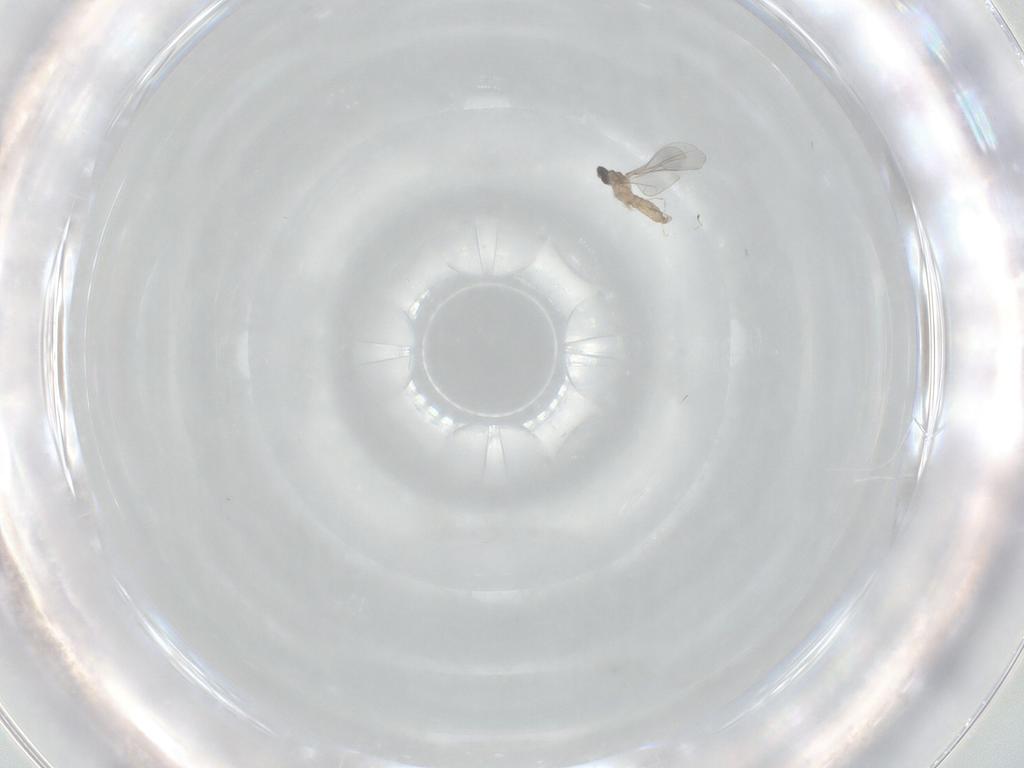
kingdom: Animalia
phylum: Arthropoda
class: Insecta
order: Diptera
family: Cecidomyiidae
